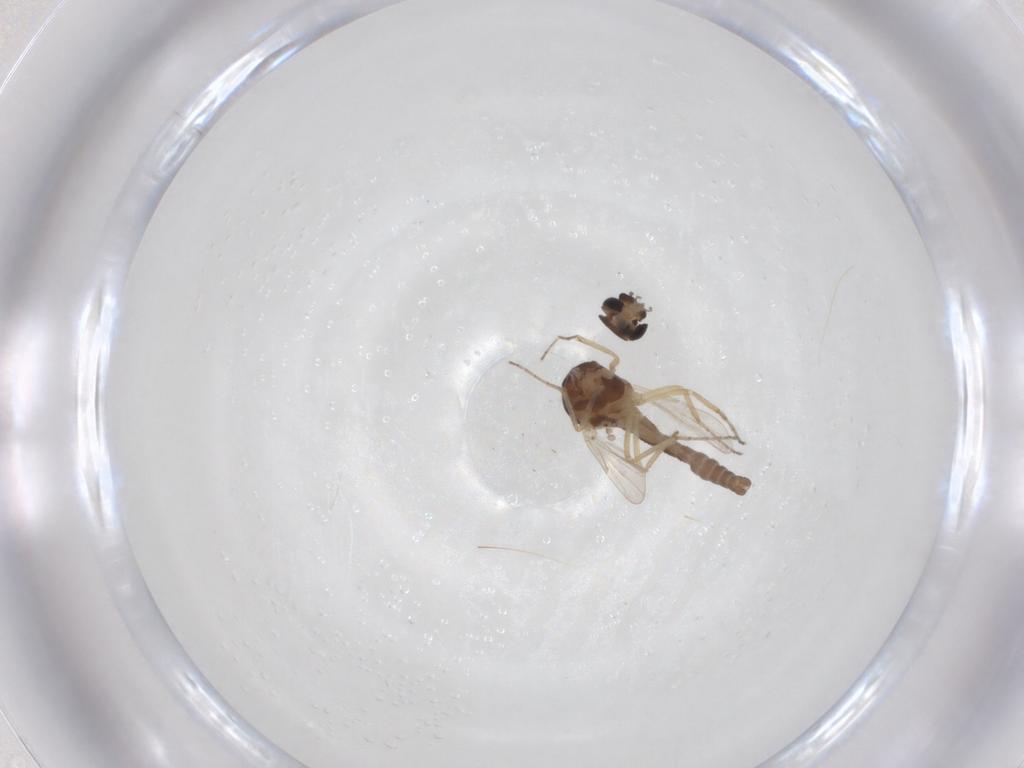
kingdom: Animalia
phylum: Arthropoda
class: Insecta
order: Diptera
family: Ceratopogonidae
